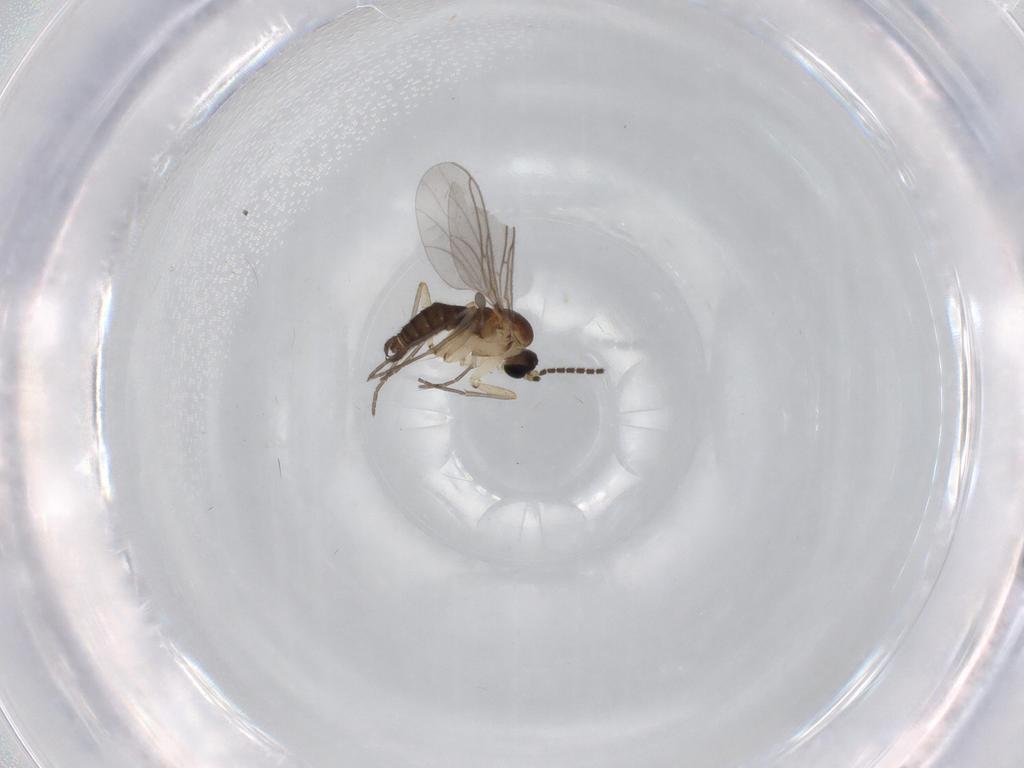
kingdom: Animalia
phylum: Arthropoda
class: Insecta
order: Diptera
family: Sciaridae
